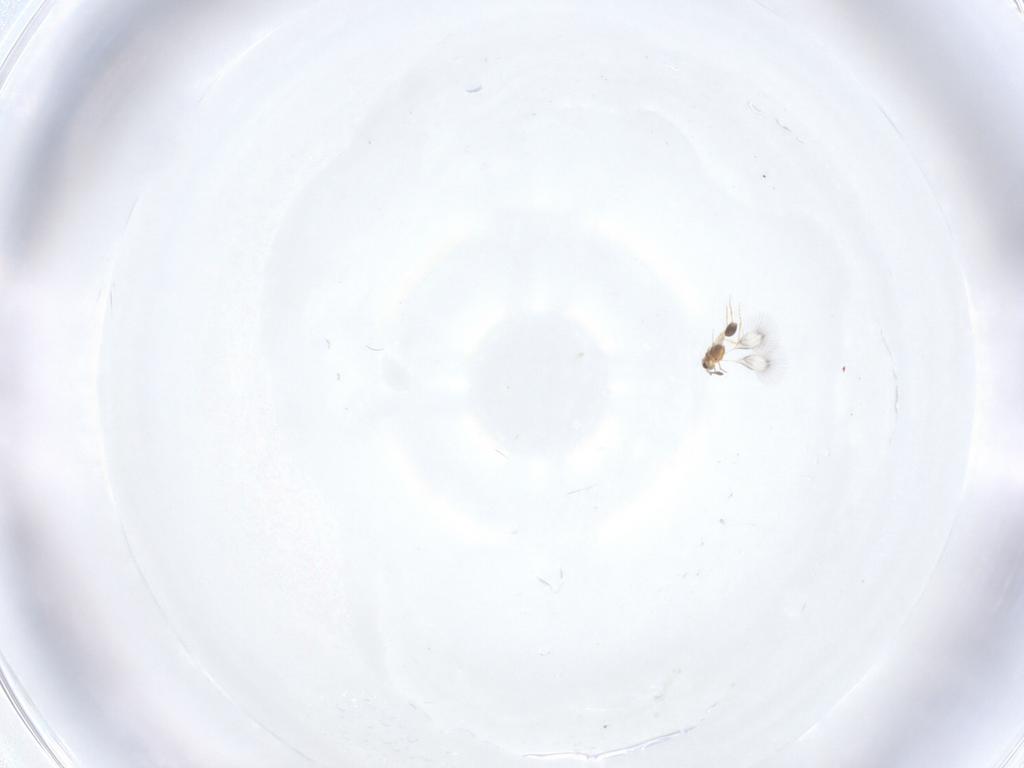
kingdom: Animalia
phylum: Arthropoda
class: Insecta
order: Hymenoptera
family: Mymarommatidae
